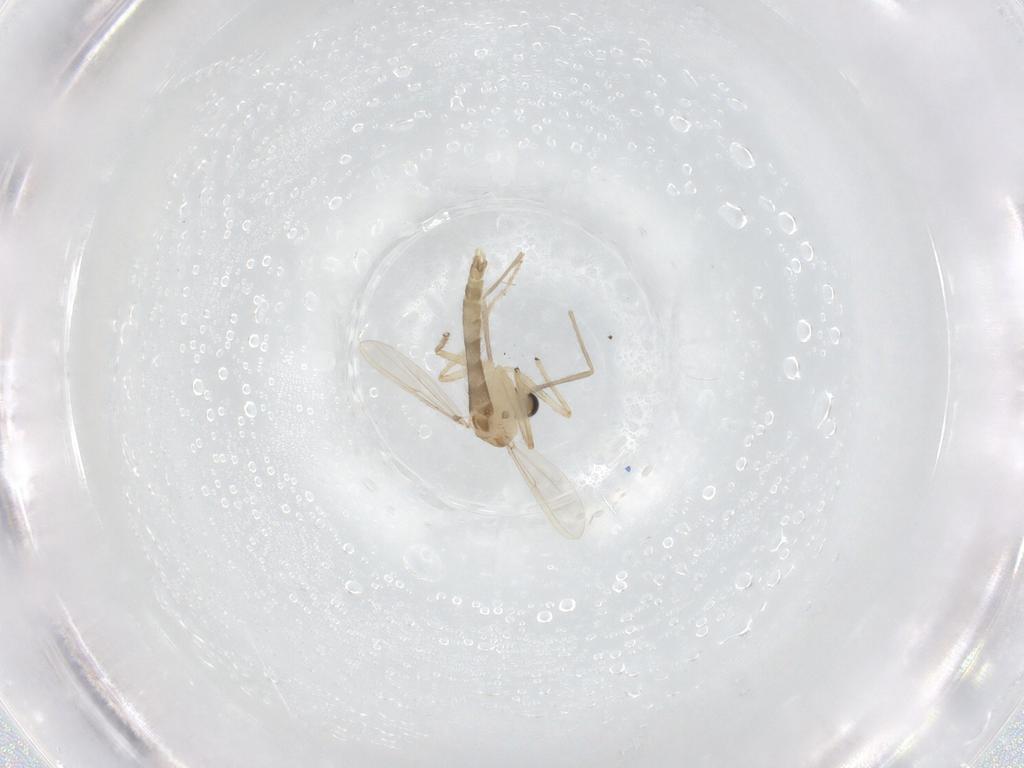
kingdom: Animalia
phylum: Arthropoda
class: Insecta
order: Diptera
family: Chironomidae
